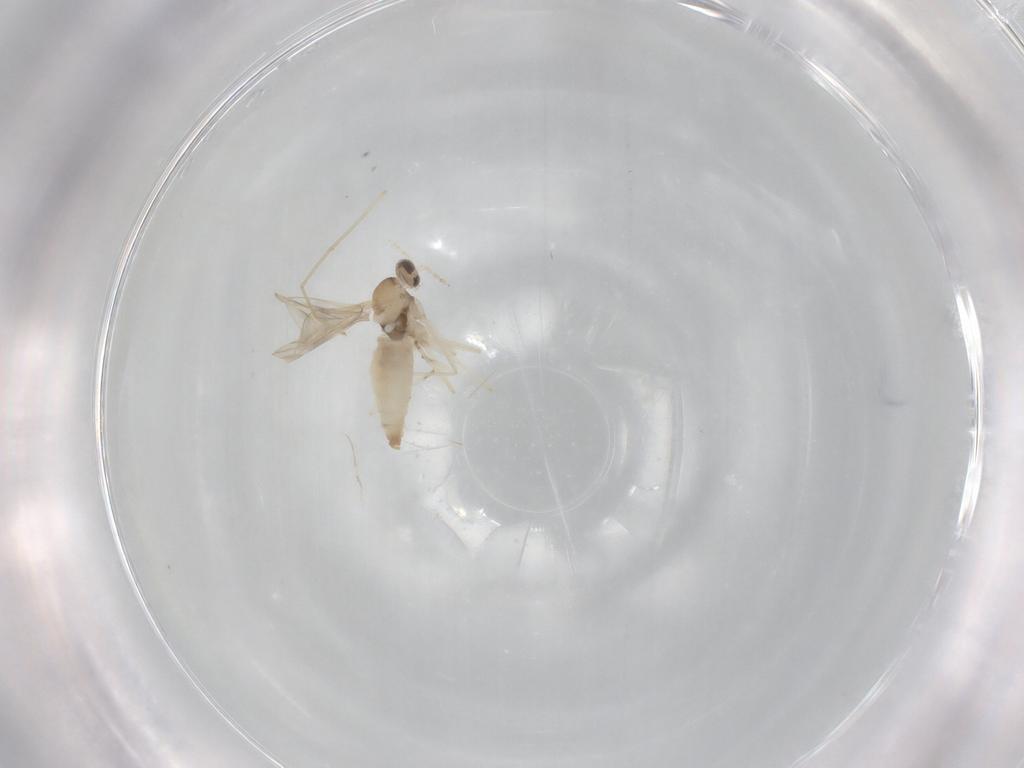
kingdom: Animalia
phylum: Arthropoda
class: Insecta
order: Diptera
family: Cecidomyiidae
